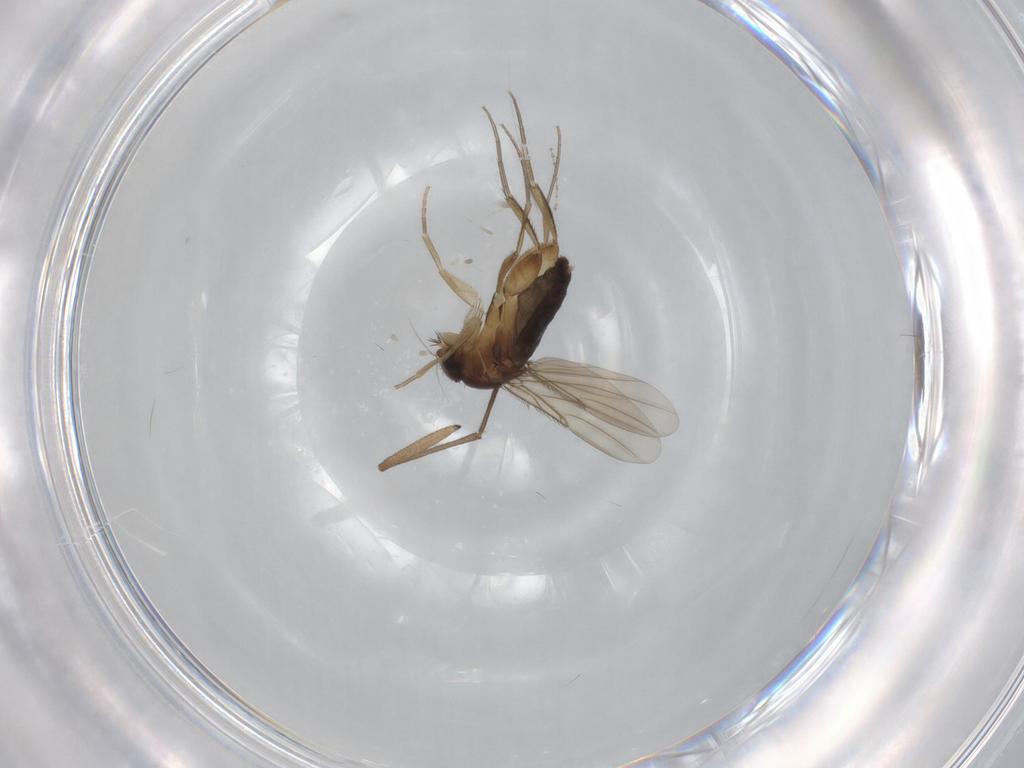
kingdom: Animalia
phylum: Arthropoda
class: Insecta
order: Diptera
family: Phoridae
